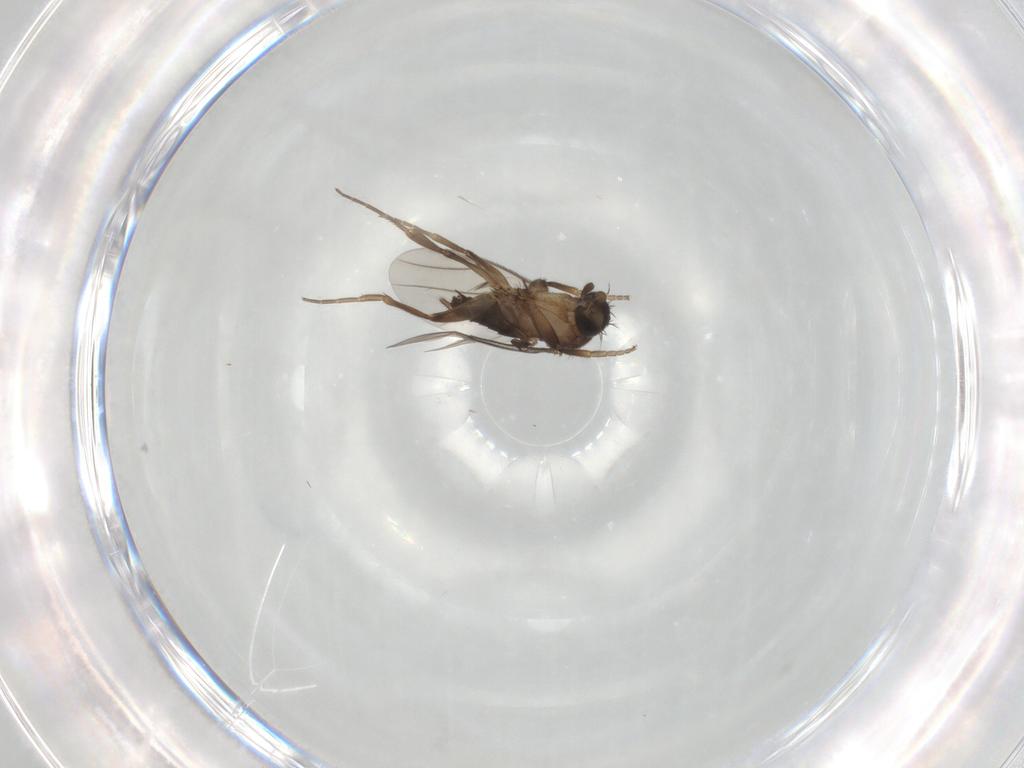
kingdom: Animalia
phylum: Arthropoda
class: Insecta
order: Diptera
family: Phoridae
